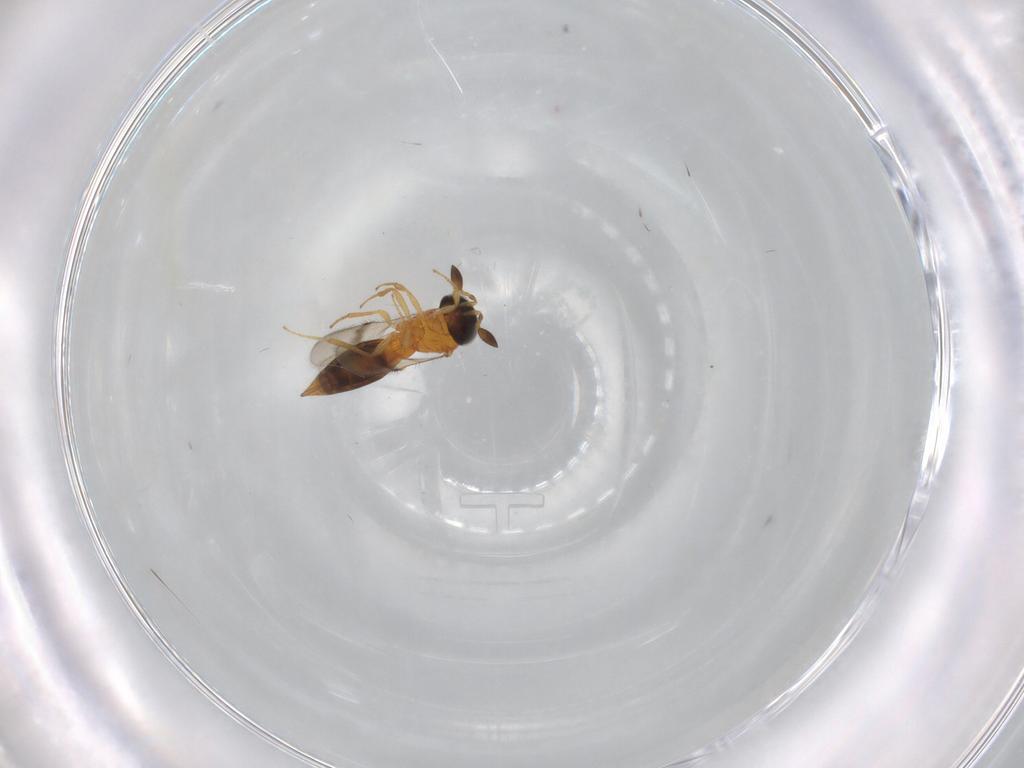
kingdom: Animalia
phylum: Arthropoda
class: Insecta
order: Hymenoptera
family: Scelionidae
